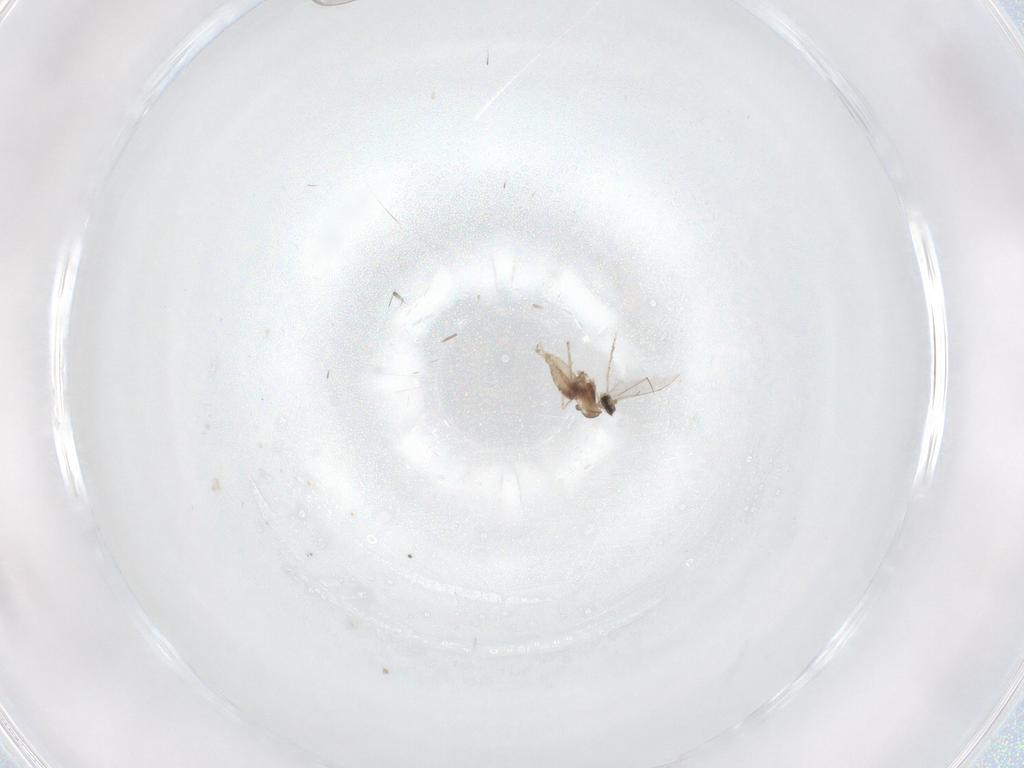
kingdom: Animalia
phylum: Arthropoda
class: Insecta
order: Diptera
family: Cecidomyiidae
